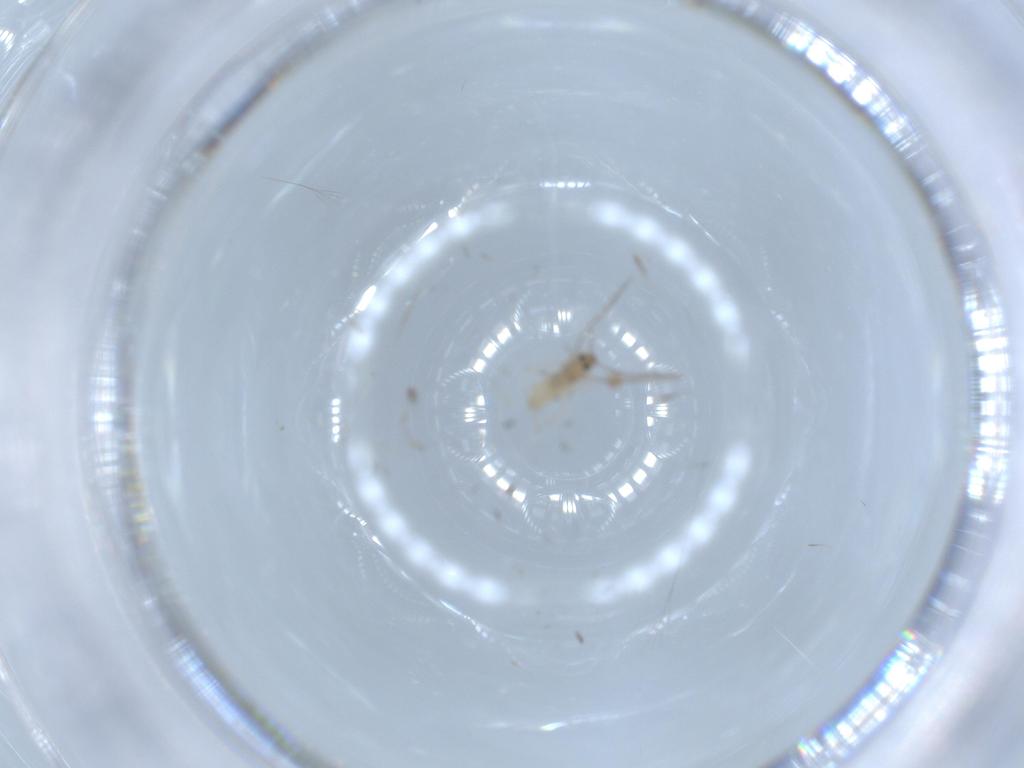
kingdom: Animalia
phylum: Arthropoda
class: Insecta
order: Diptera
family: Cecidomyiidae
